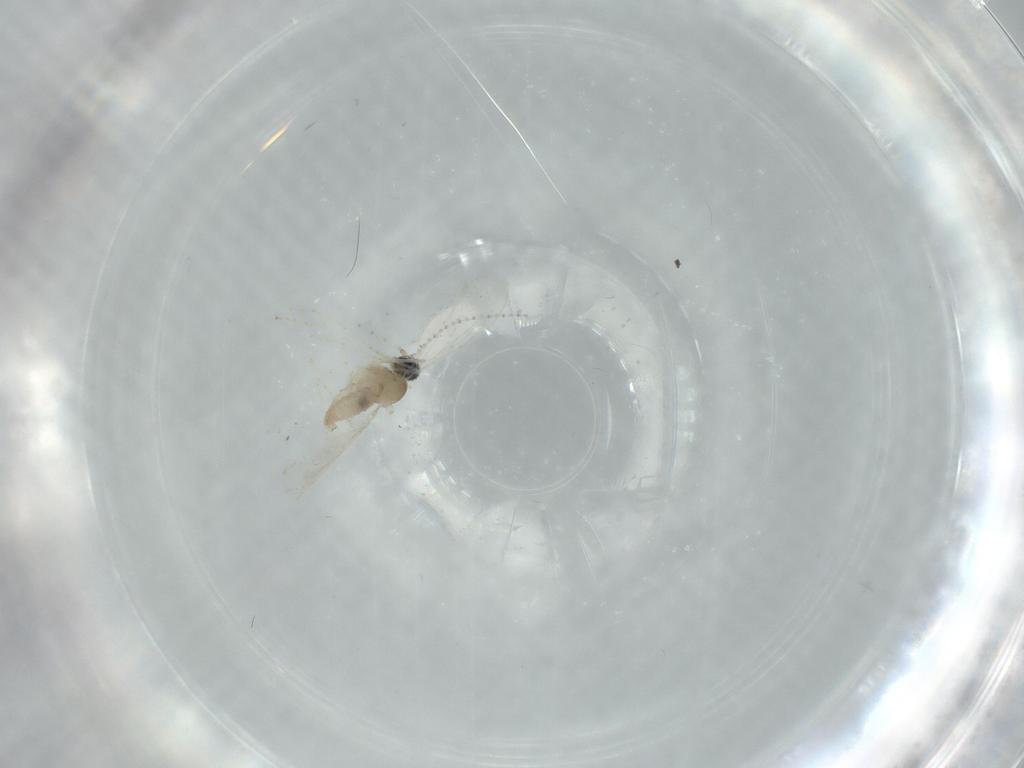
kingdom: Animalia
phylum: Arthropoda
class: Insecta
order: Diptera
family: Cecidomyiidae
